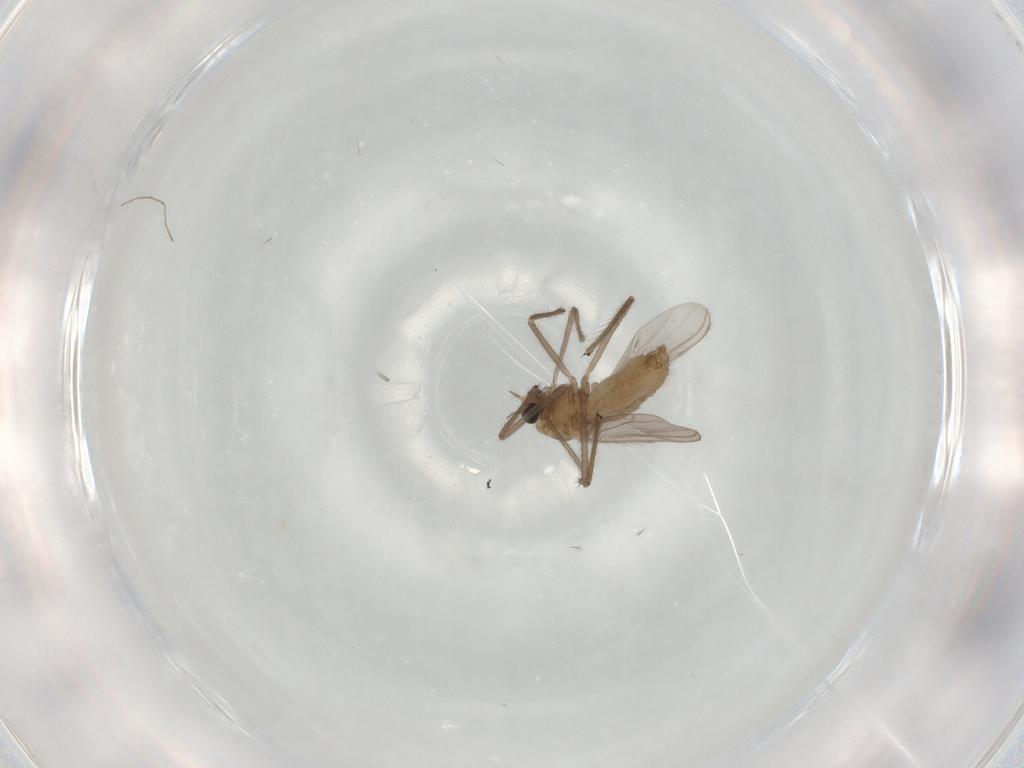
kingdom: Animalia
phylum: Arthropoda
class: Insecta
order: Diptera
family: Chironomidae
